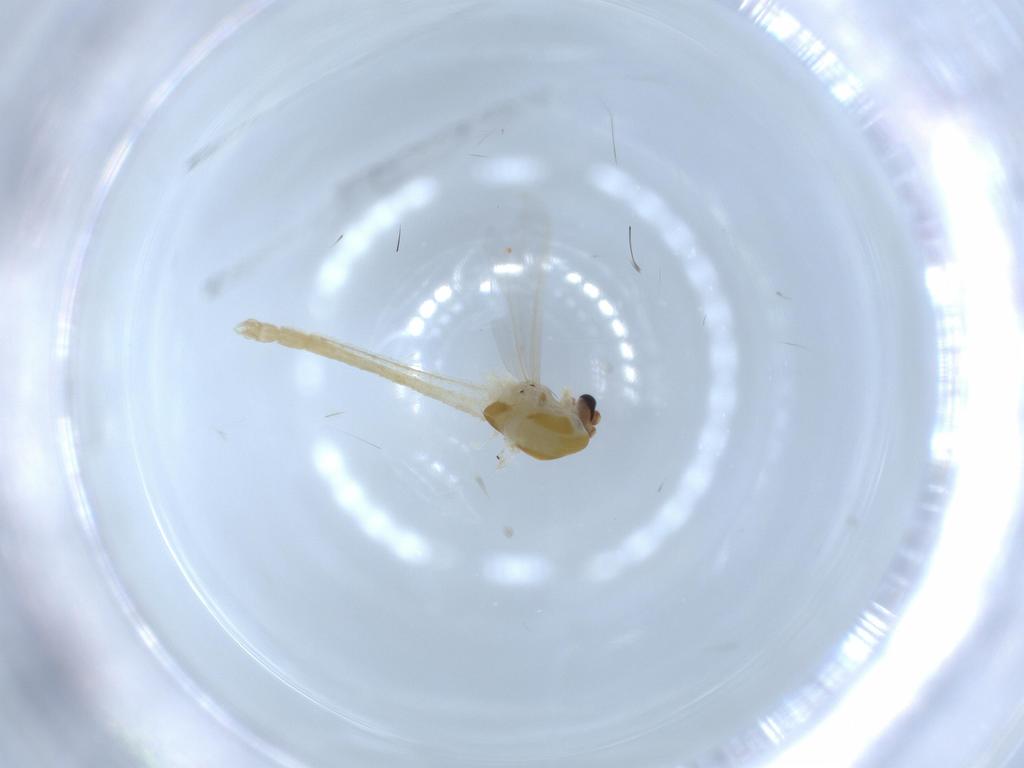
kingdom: Animalia
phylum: Arthropoda
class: Insecta
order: Diptera
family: Chironomidae
